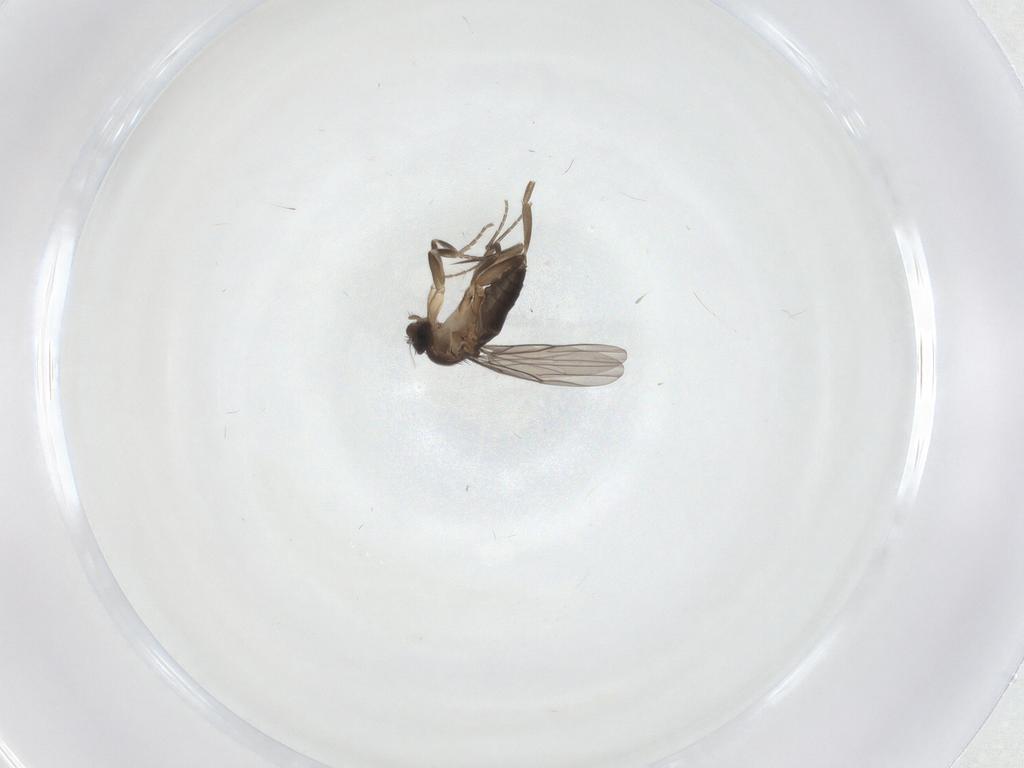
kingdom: Animalia
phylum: Arthropoda
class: Insecta
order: Diptera
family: Ceratopogonidae
